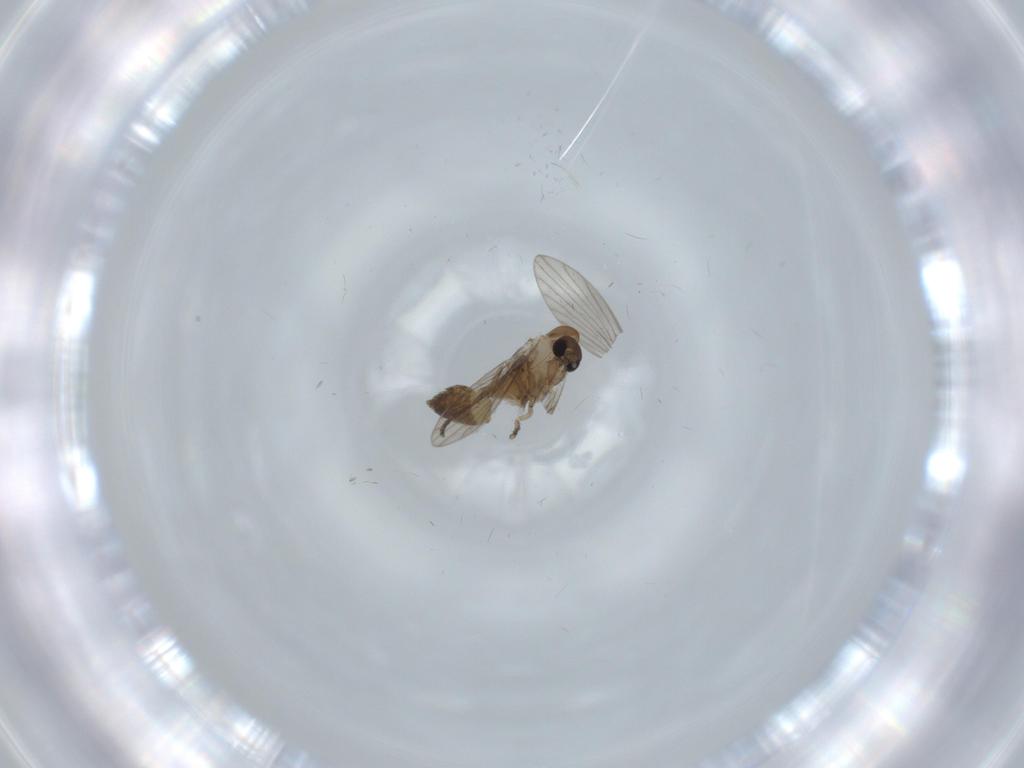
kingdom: Animalia
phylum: Arthropoda
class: Insecta
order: Diptera
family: Psychodidae
